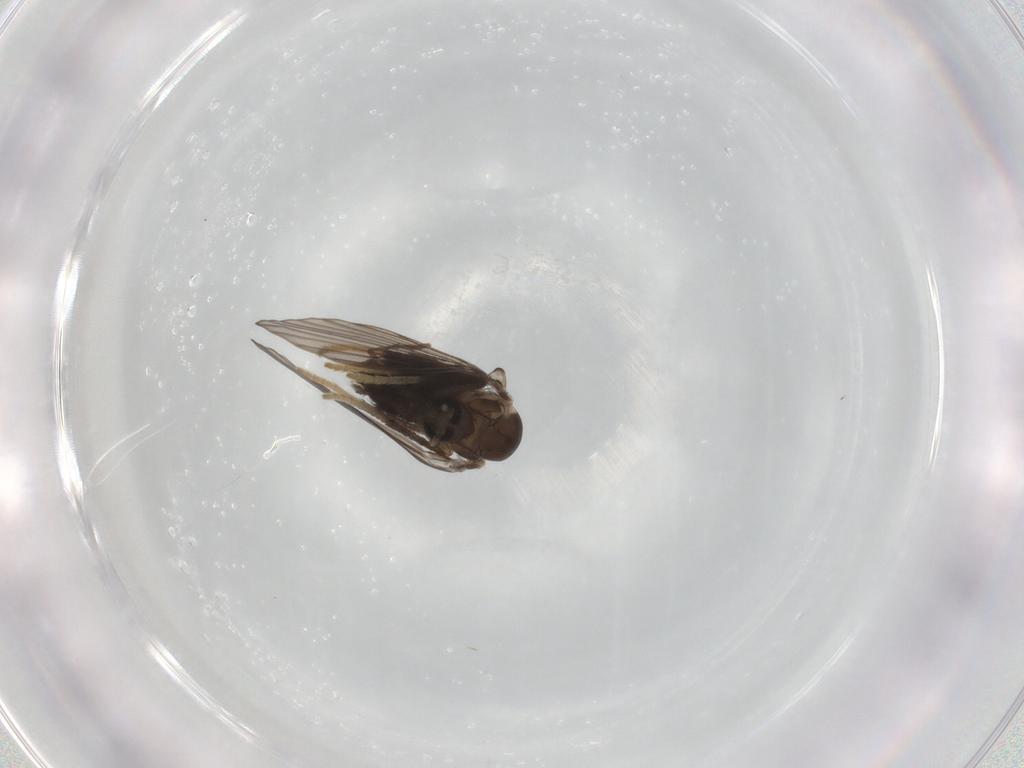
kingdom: Animalia
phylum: Arthropoda
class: Insecta
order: Diptera
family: Psychodidae
